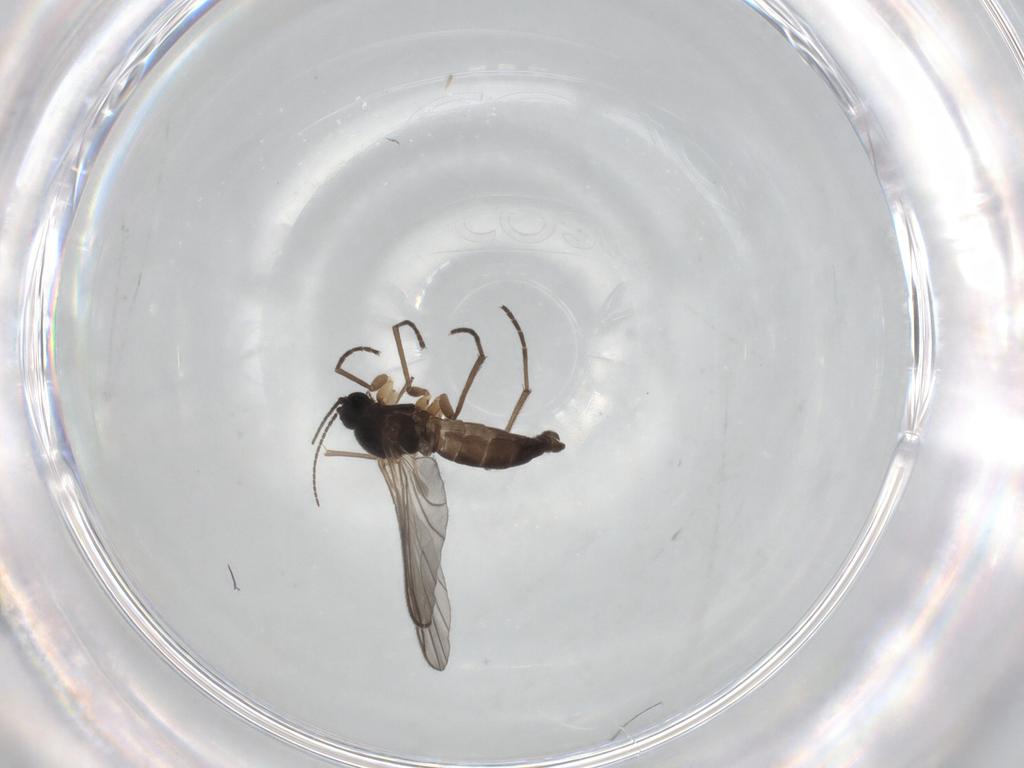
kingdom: Animalia
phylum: Arthropoda
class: Insecta
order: Diptera
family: Sciaridae
